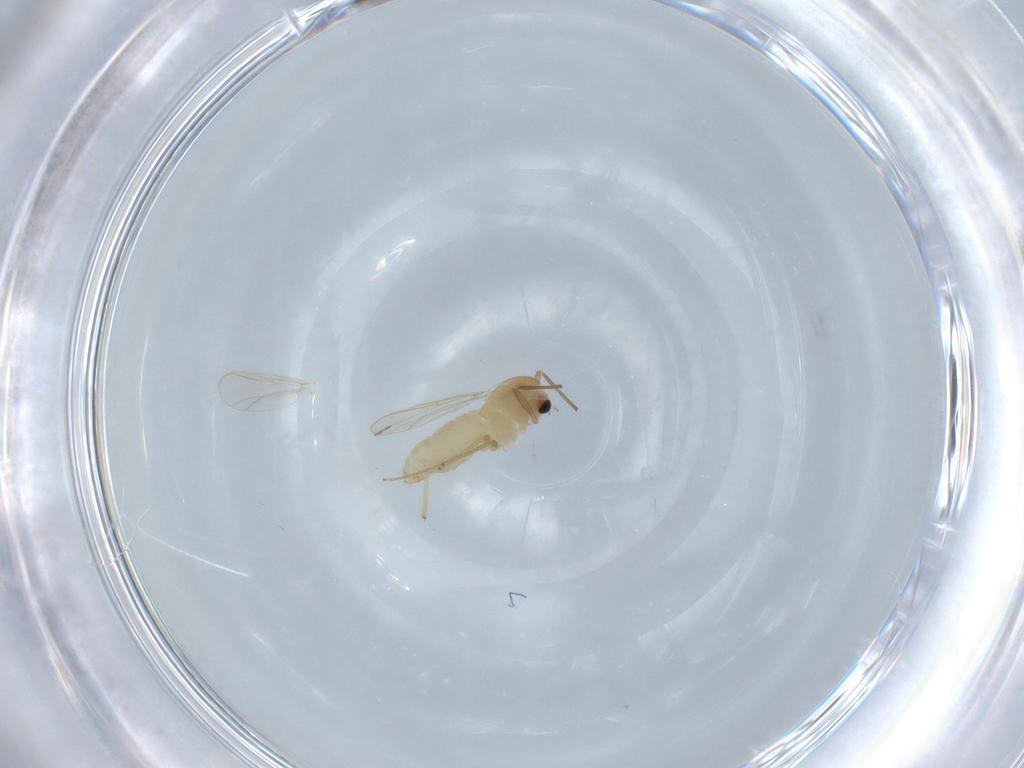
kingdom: Animalia
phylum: Arthropoda
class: Insecta
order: Diptera
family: Chironomidae
